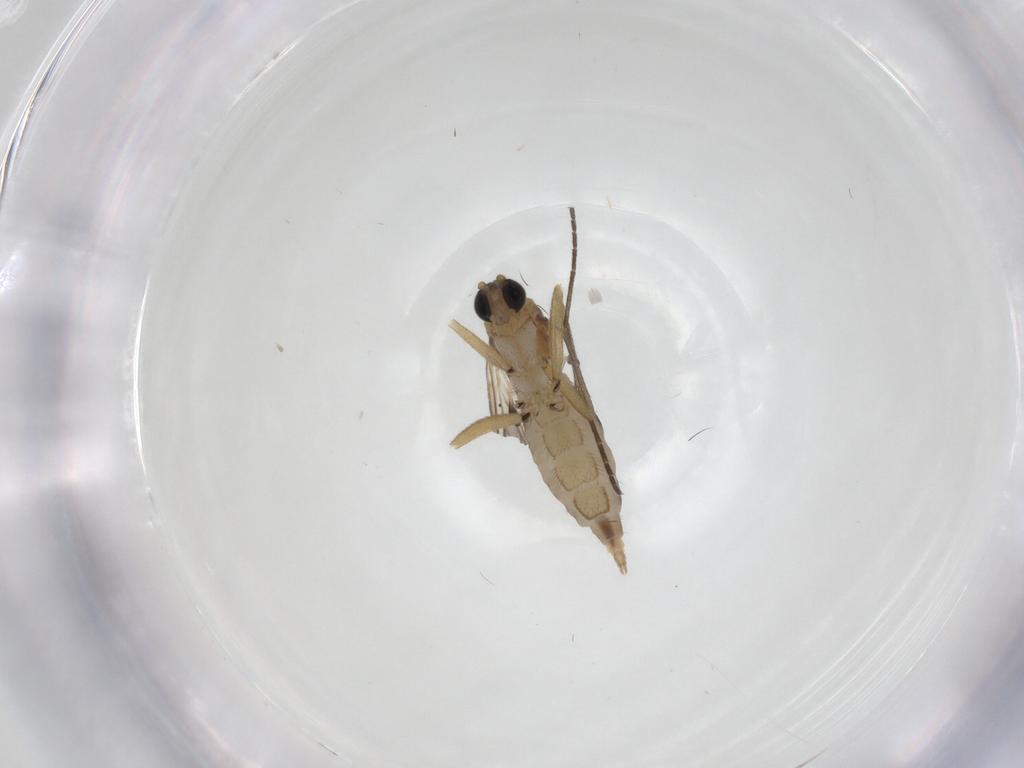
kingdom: Animalia
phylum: Arthropoda
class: Insecta
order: Diptera
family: Sciaridae
